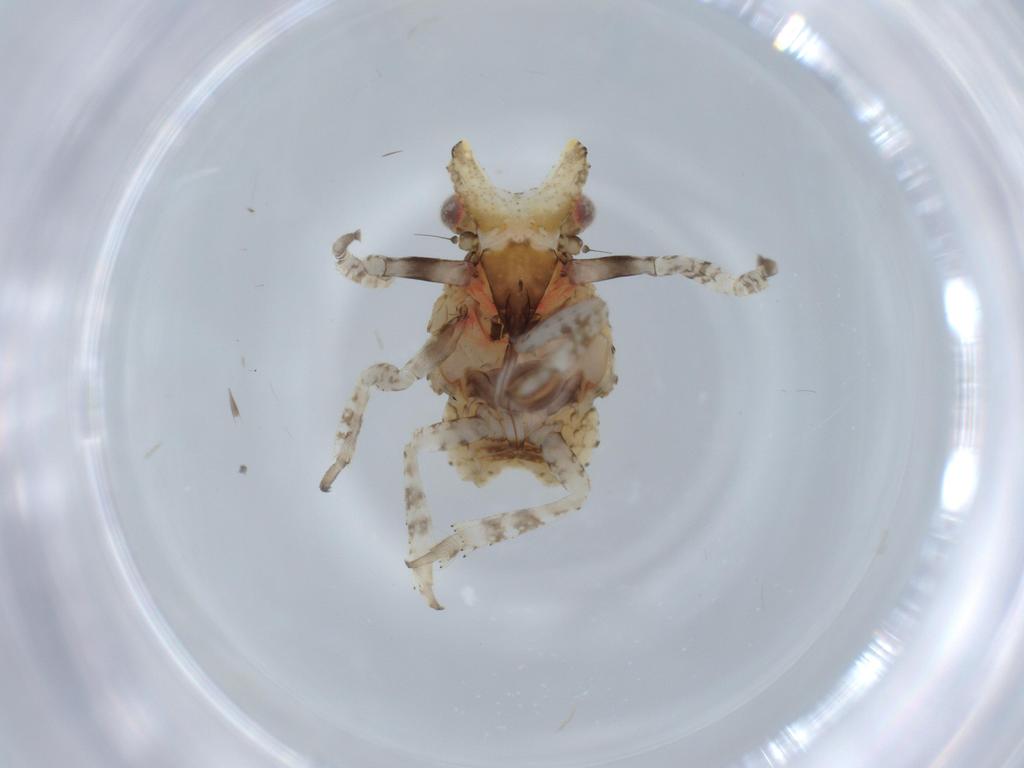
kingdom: Animalia
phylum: Arthropoda
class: Insecta
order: Hemiptera
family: Fulgoridae
